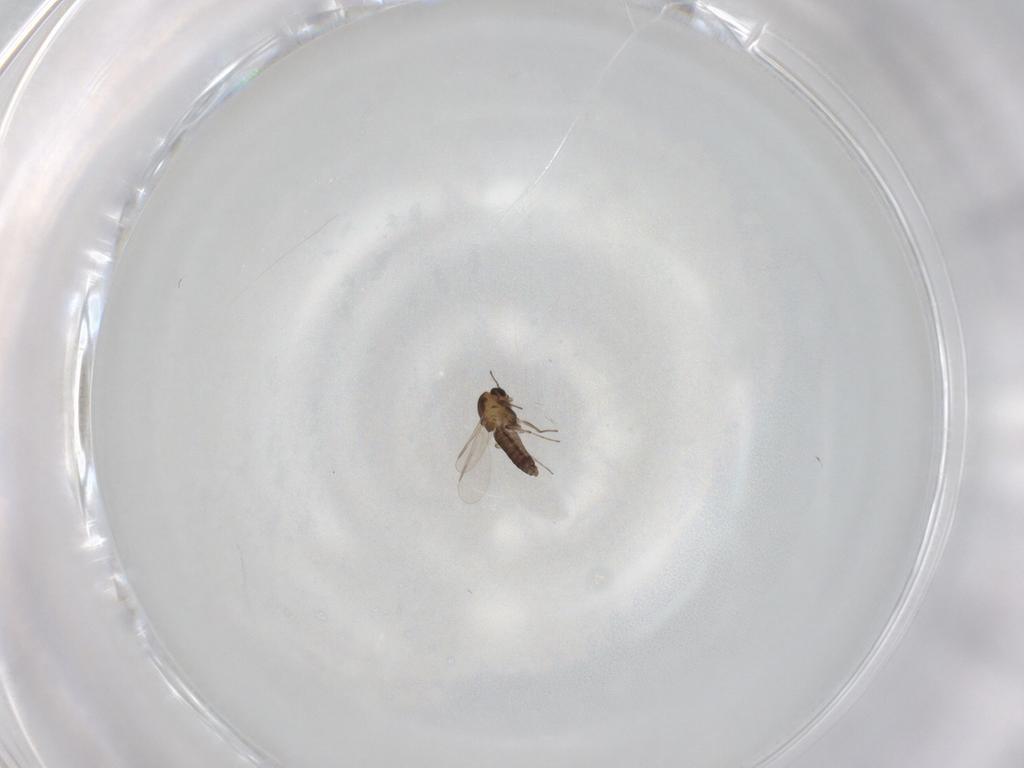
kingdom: Animalia
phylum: Arthropoda
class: Insecta
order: Diptera
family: Chironomidae
